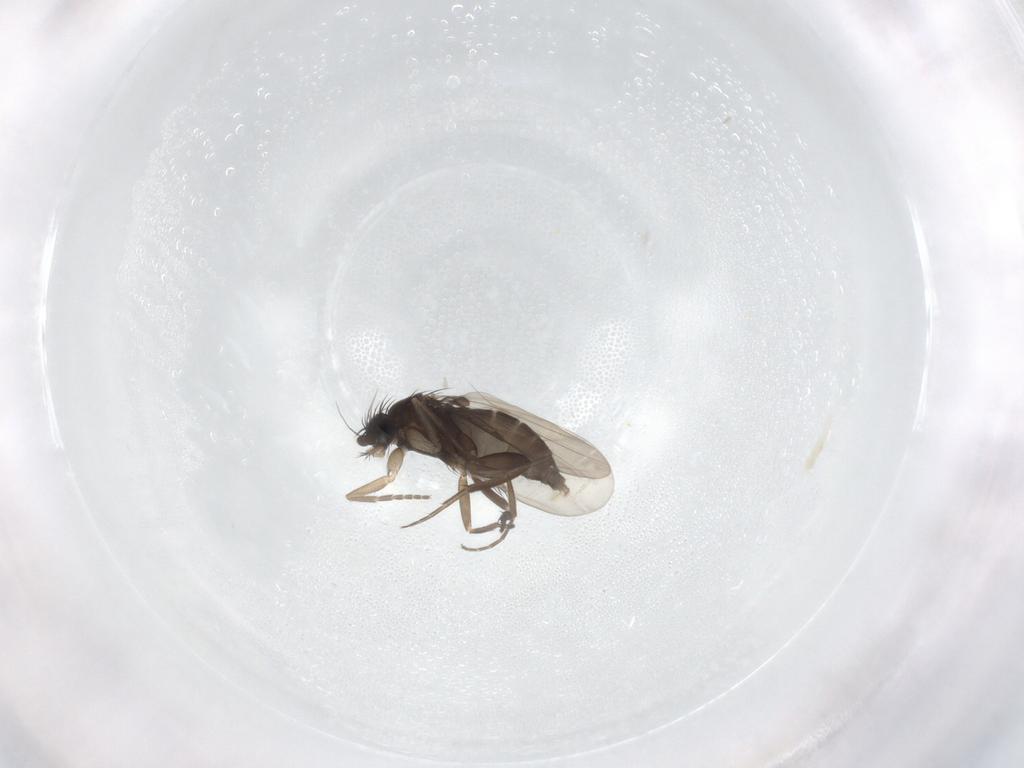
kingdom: Animalia
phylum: Arthropoda
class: Insecta
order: Diptera
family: Phoridae
